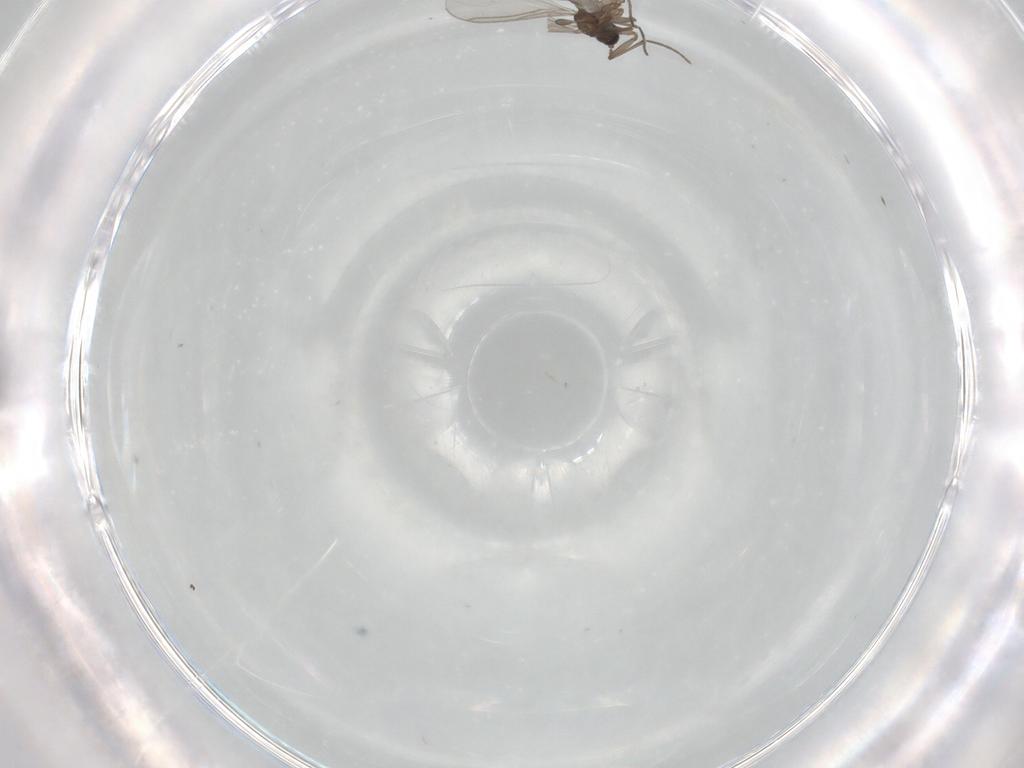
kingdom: Animalia
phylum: Arthropoda
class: Insecta
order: Diptera
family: Sciaridae
